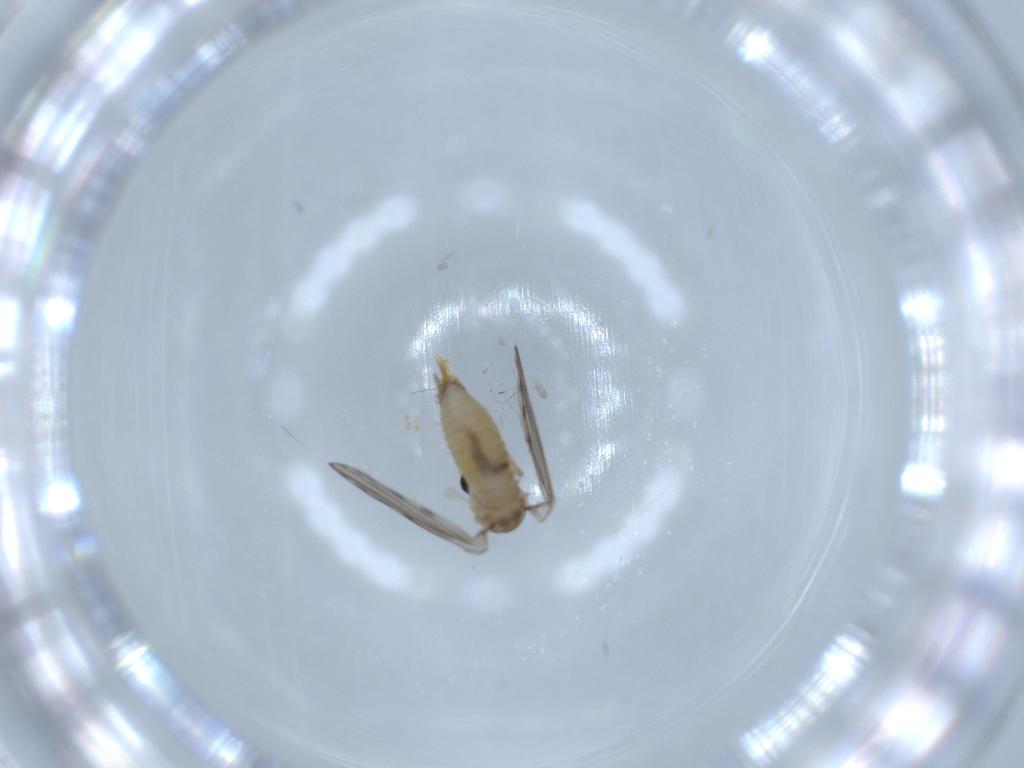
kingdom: Animalia
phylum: Arthropoda
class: Insecta
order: Diptera
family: Psychodidae
